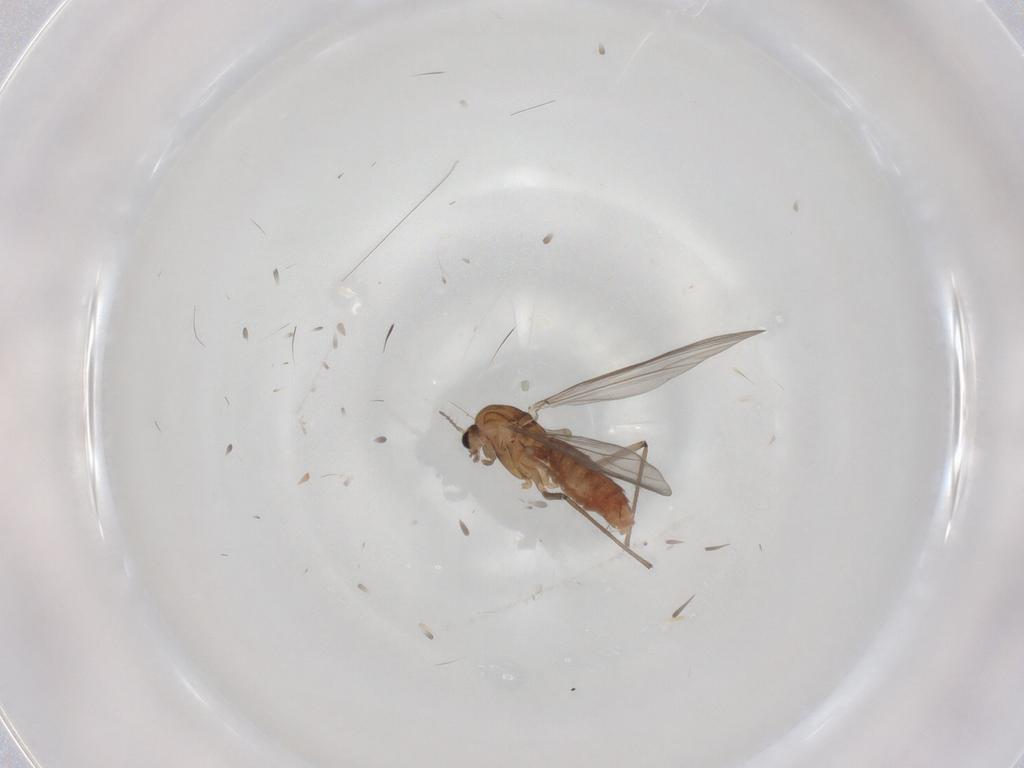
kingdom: Animalia
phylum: Arthropoda
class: Insecta
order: Diptera
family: Chironomidae
